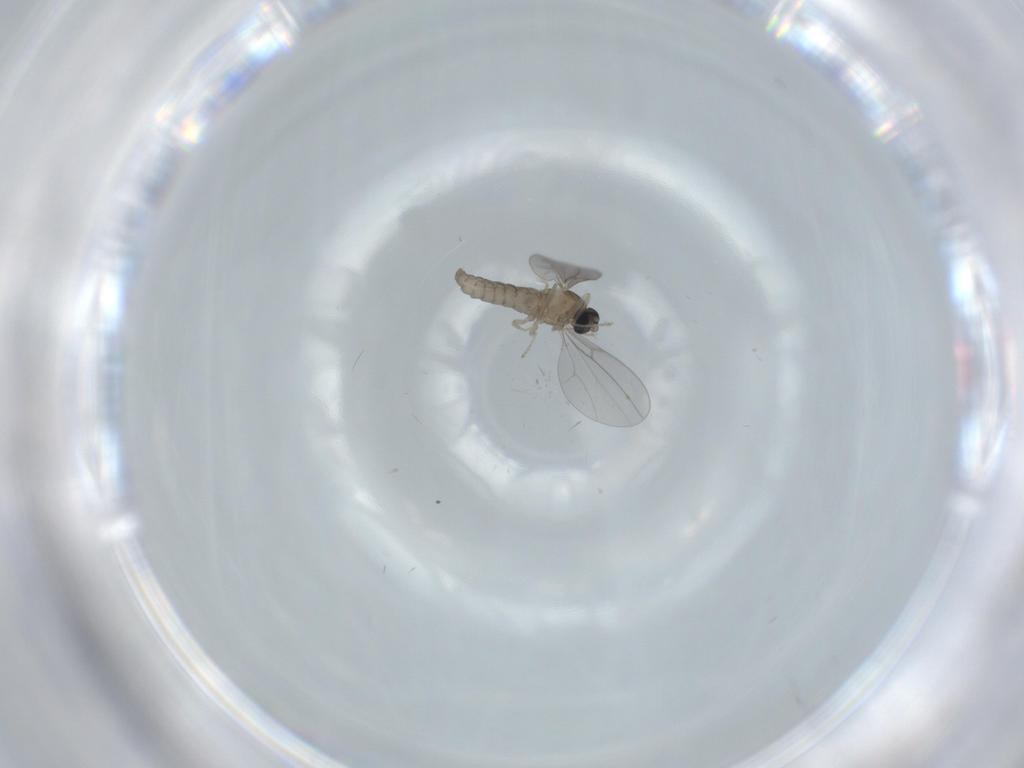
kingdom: Animalia
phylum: Arthropoda
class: Insecta
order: Diptera
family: Cecidomyiidae
